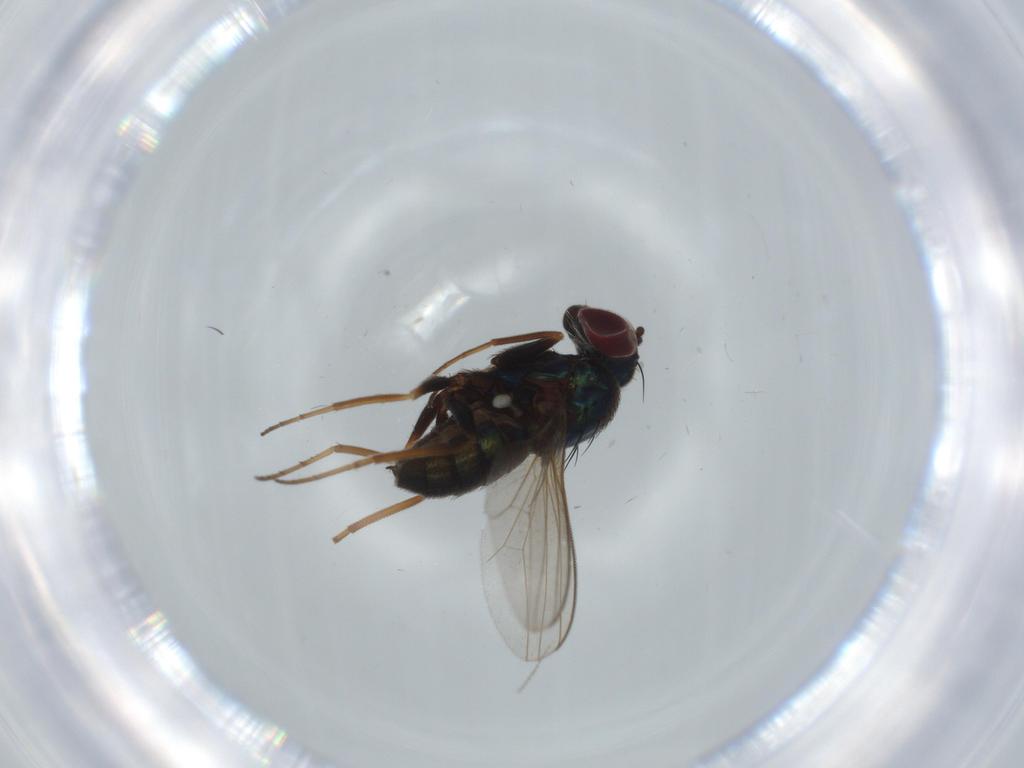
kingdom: Animalia
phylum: Arthropoda
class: Insecta
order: Diptera
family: Dolichopodidae
